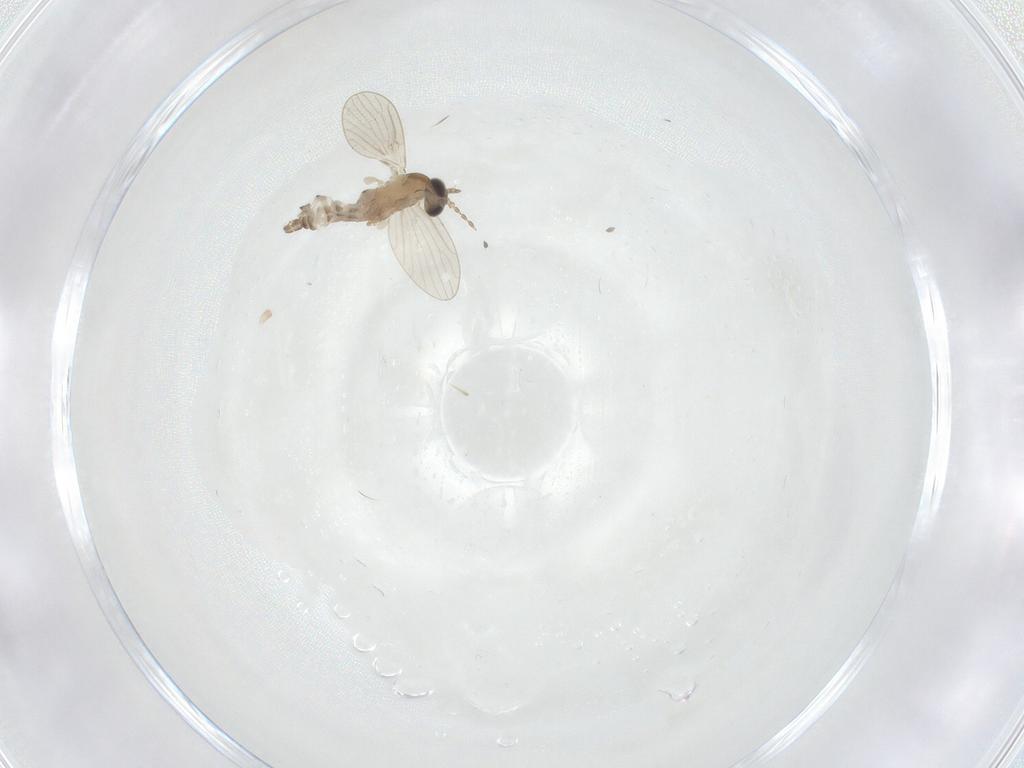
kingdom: Animalia
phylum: Arthropoda
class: Insecta
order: Diptera
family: Psychodidae
